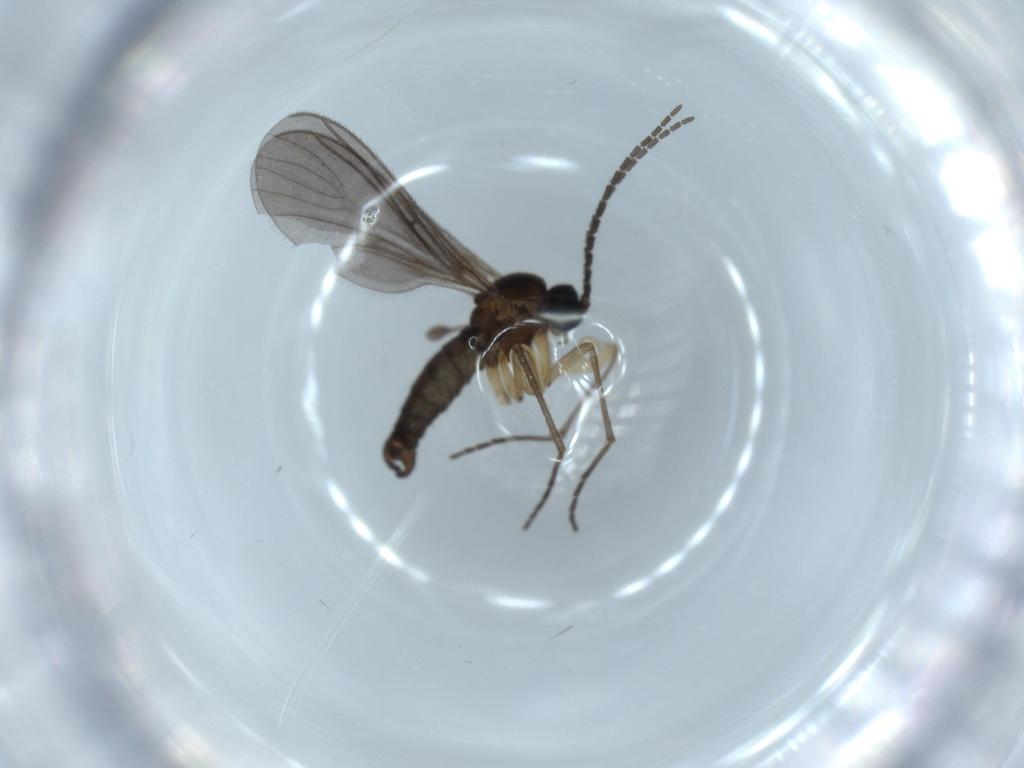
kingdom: Animalia
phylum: Arthropoda
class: Insecta
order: Diptera
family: Sciaridae
